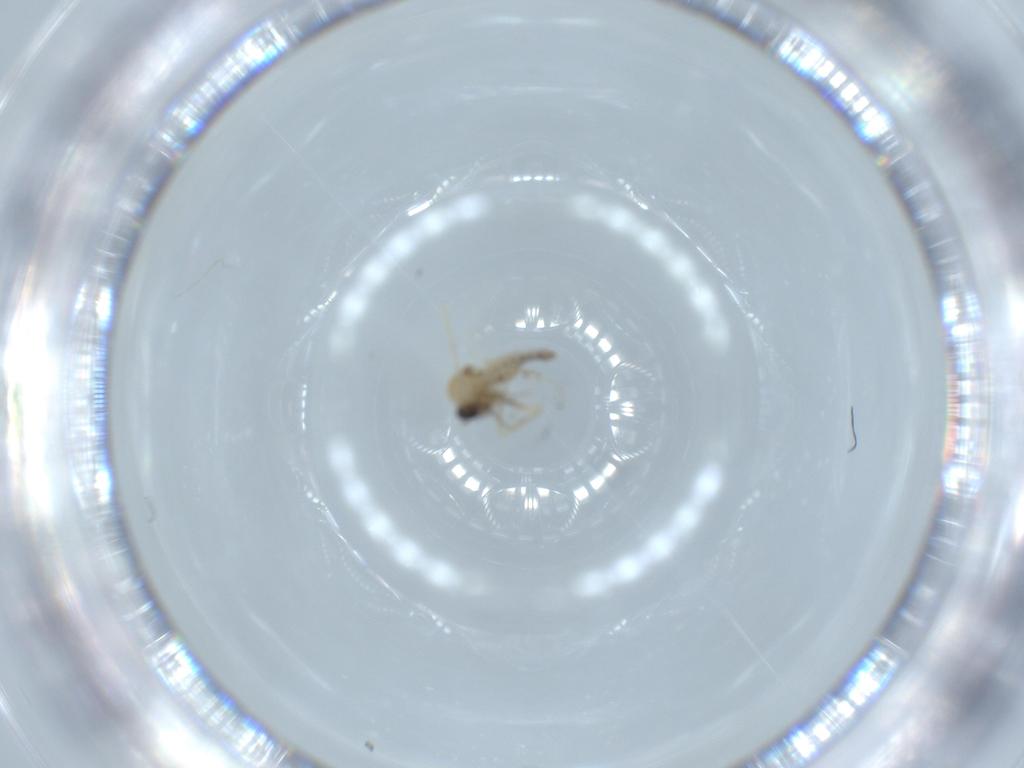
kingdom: Animalia
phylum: Arthropoda
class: Insecta
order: Diptera
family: Ceratopogonidae
